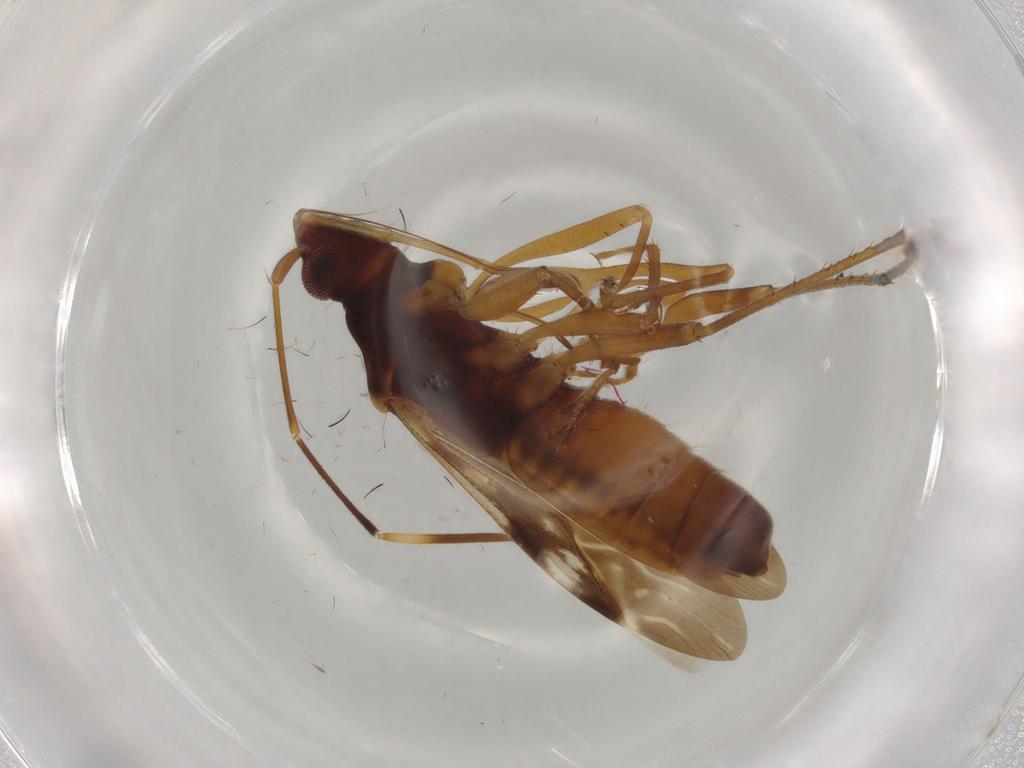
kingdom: Animalia
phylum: Arthropoda
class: Insecta
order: Hemiptera
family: Rhyparochromidae
